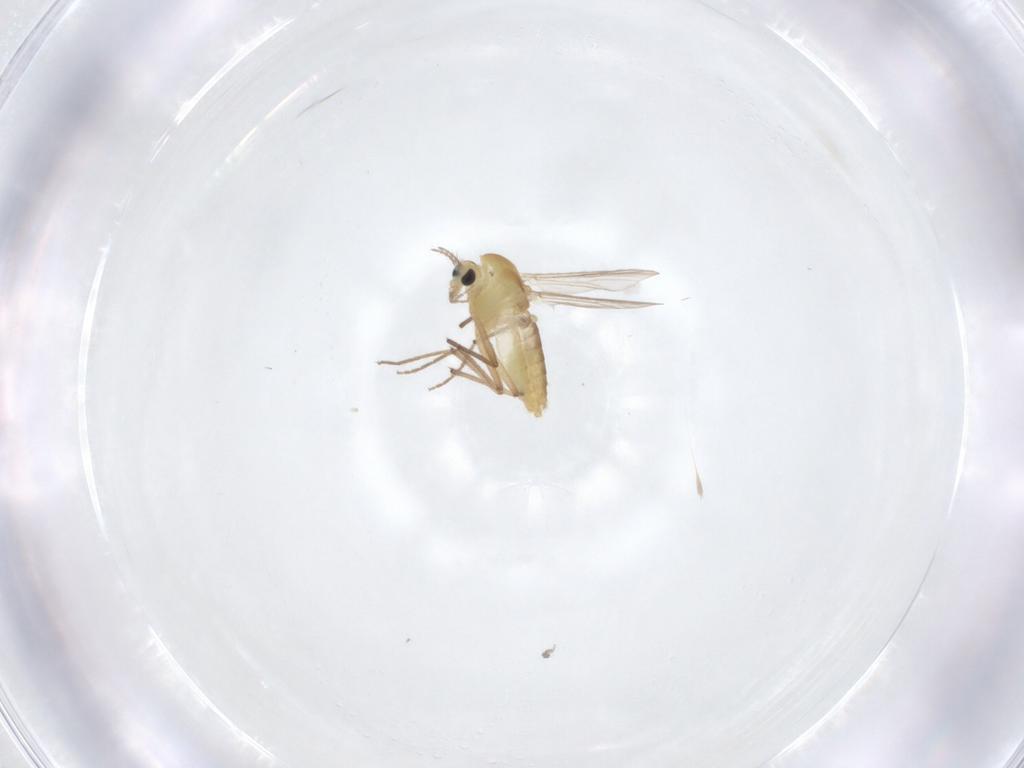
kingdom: Animalia
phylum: Arthropoda
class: Insecta
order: Diptera
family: Chironomidae
